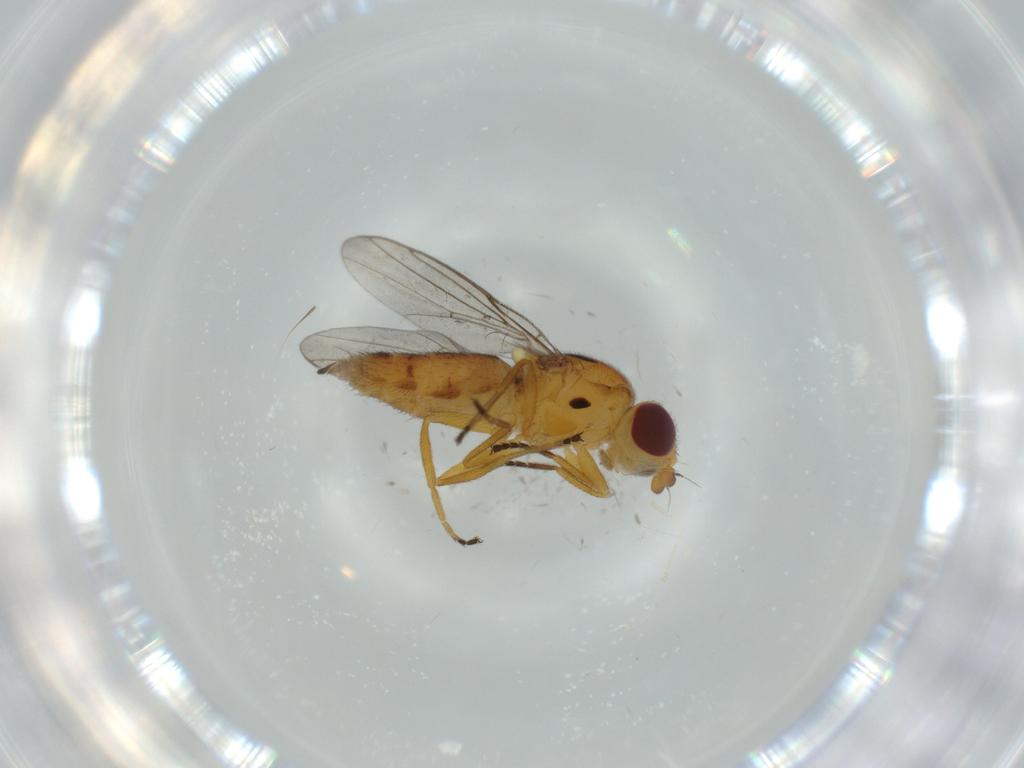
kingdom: Animalia
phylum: Arthropoda
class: Insecta
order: Diptera
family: Chloropidae
